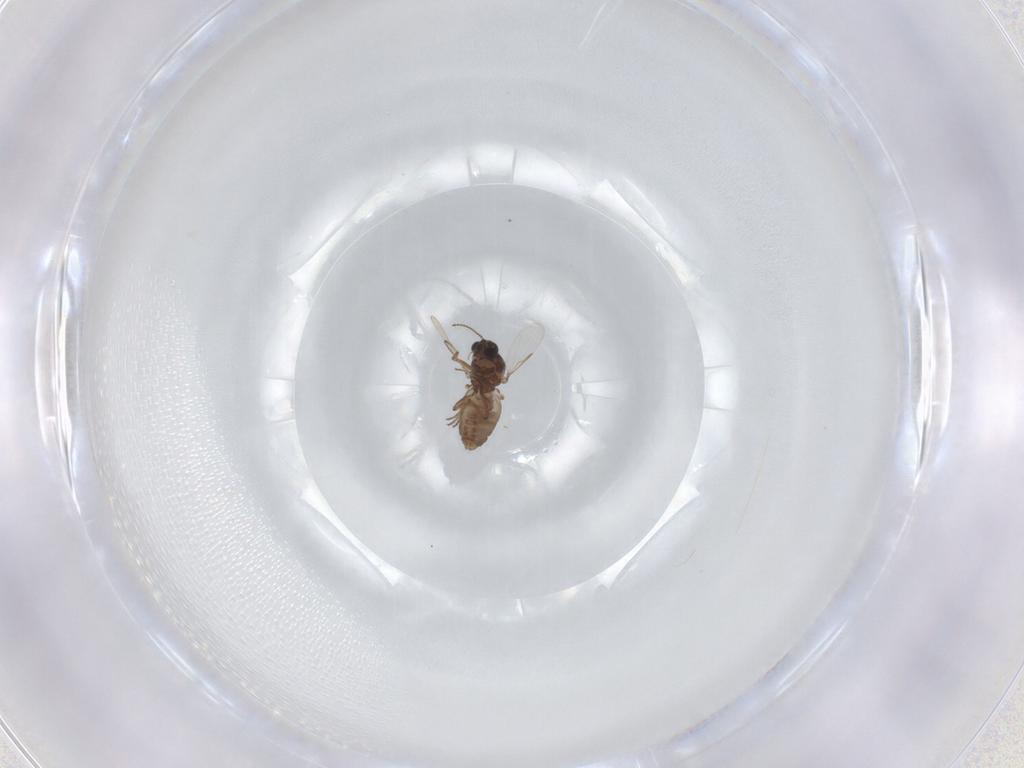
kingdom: Animalia
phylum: Arthropoda
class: Insecta
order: Diptera
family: Ceratopogonidae
